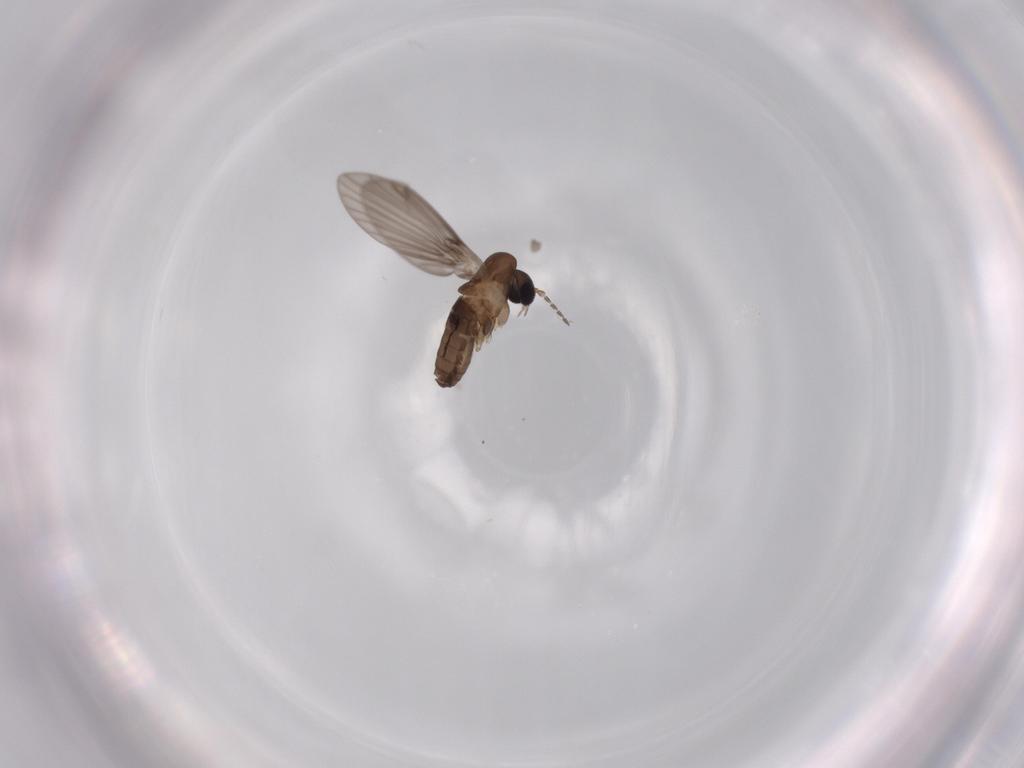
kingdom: Animalia
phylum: Arthropoda
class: Insecta
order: Diptera
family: Psychodidae
